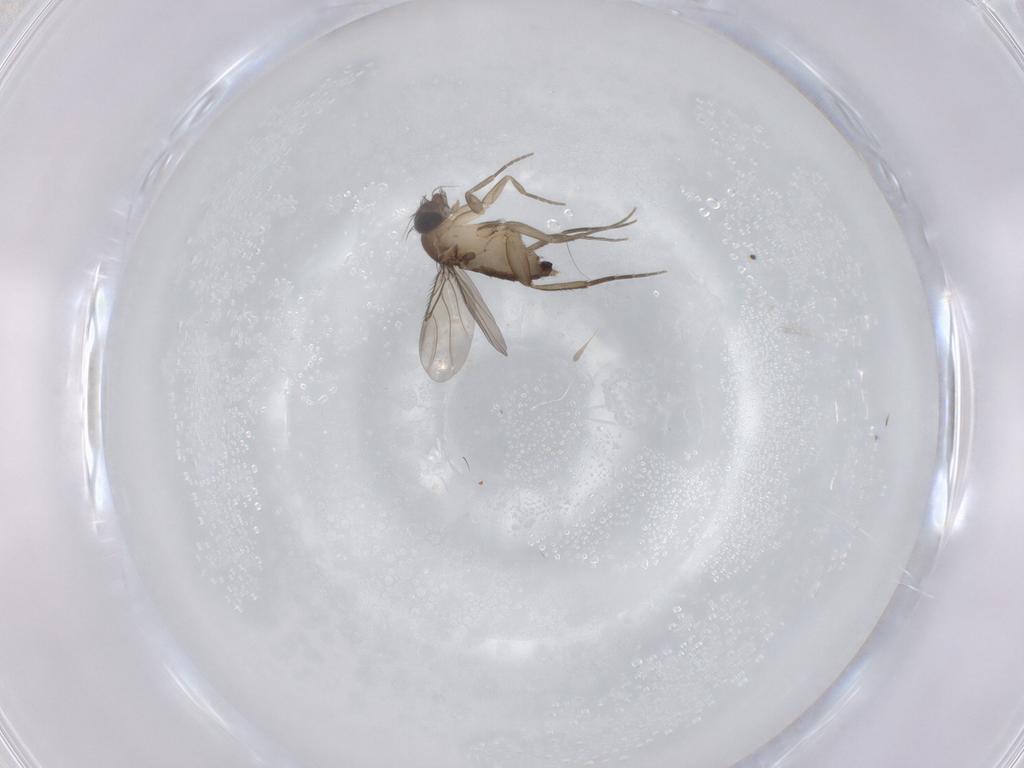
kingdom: Animalia
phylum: Arthropoda
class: Insecta
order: Diptera
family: Phoridae
